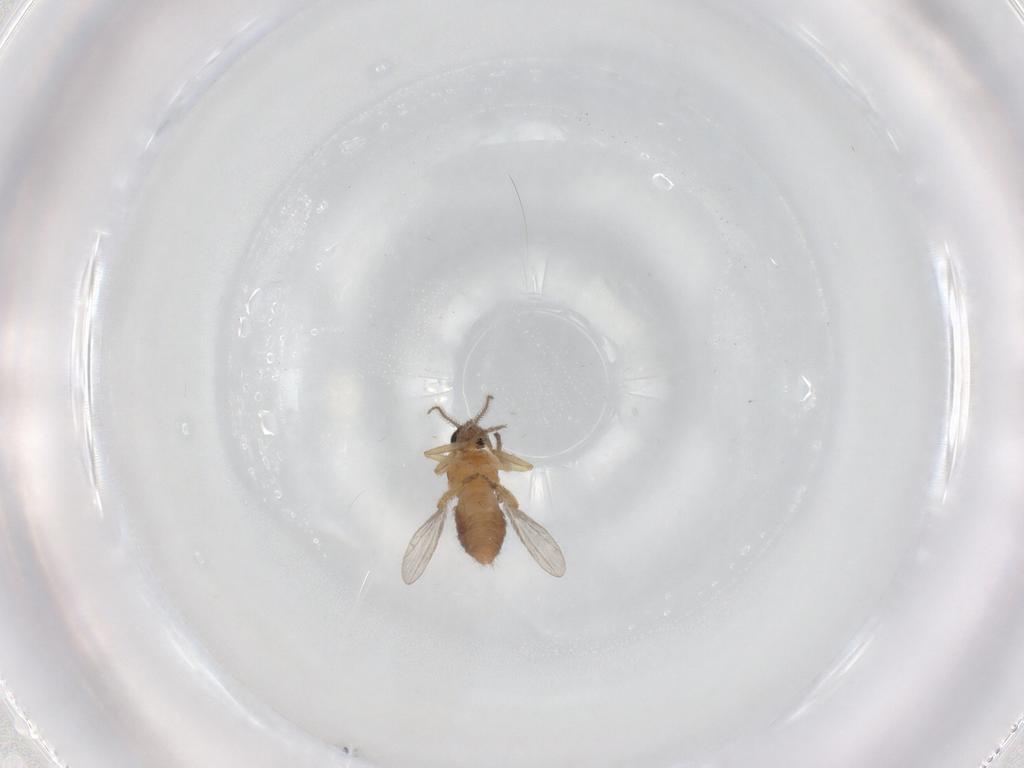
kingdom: Animalia
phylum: Arthropoda
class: Insecta
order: Diptera
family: Ceratopogonidae
